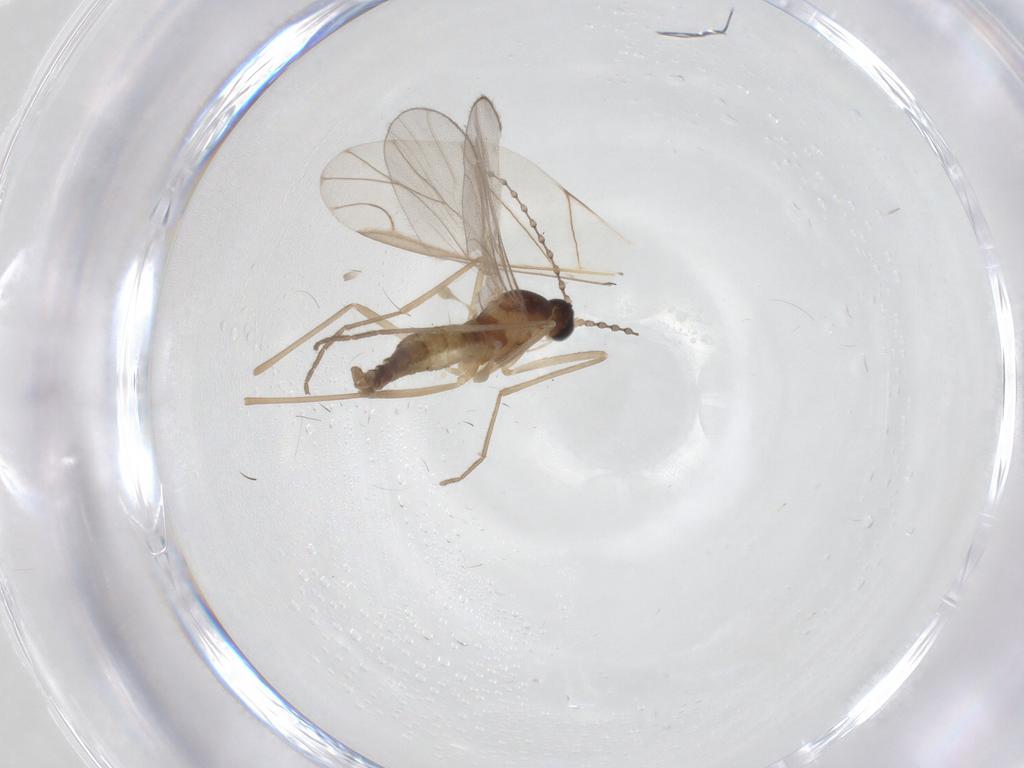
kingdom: Animalia
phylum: Arthropoda
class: Insecta
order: Diptera
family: Cecidomyiidae
